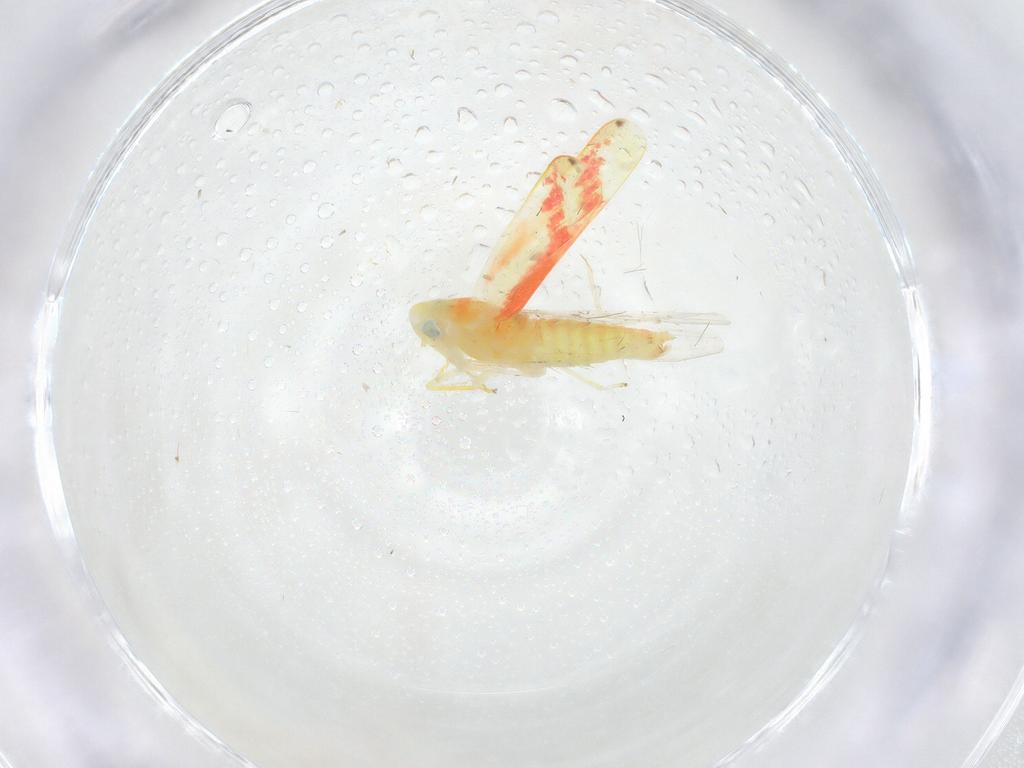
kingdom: Animalia
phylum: Arthropoda
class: Insecta
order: Hemiptera
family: Cicadellidae
